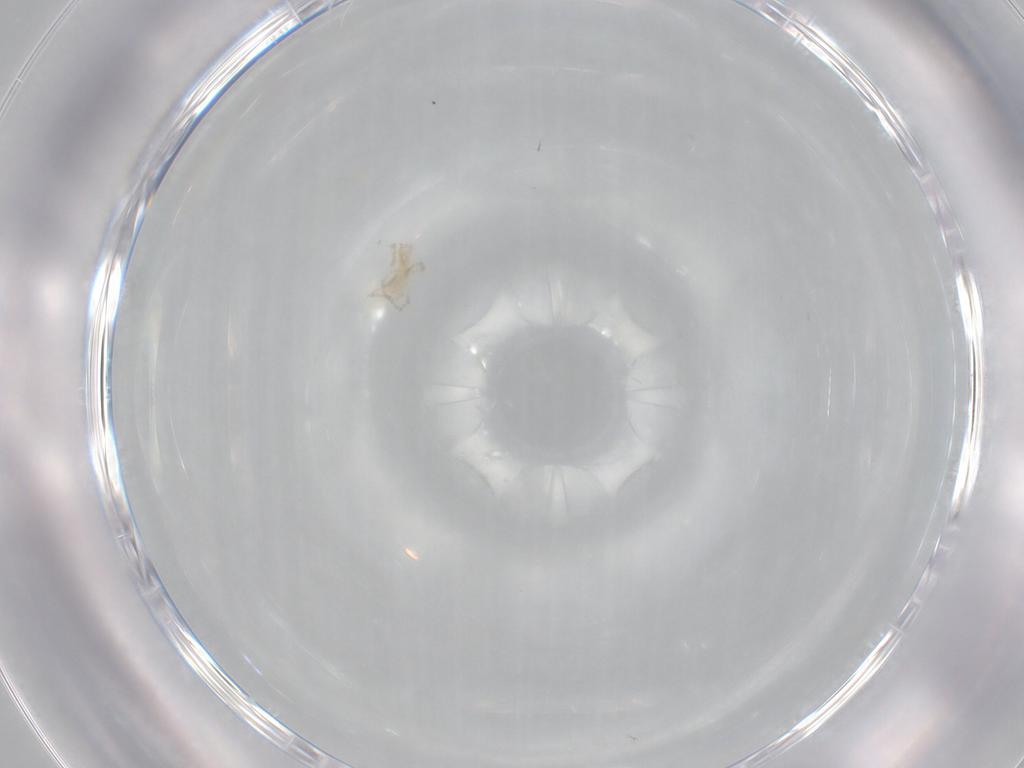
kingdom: Animalia
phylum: Arthropoda
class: Arachnida
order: Trombidiformes
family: Erythraeidae
